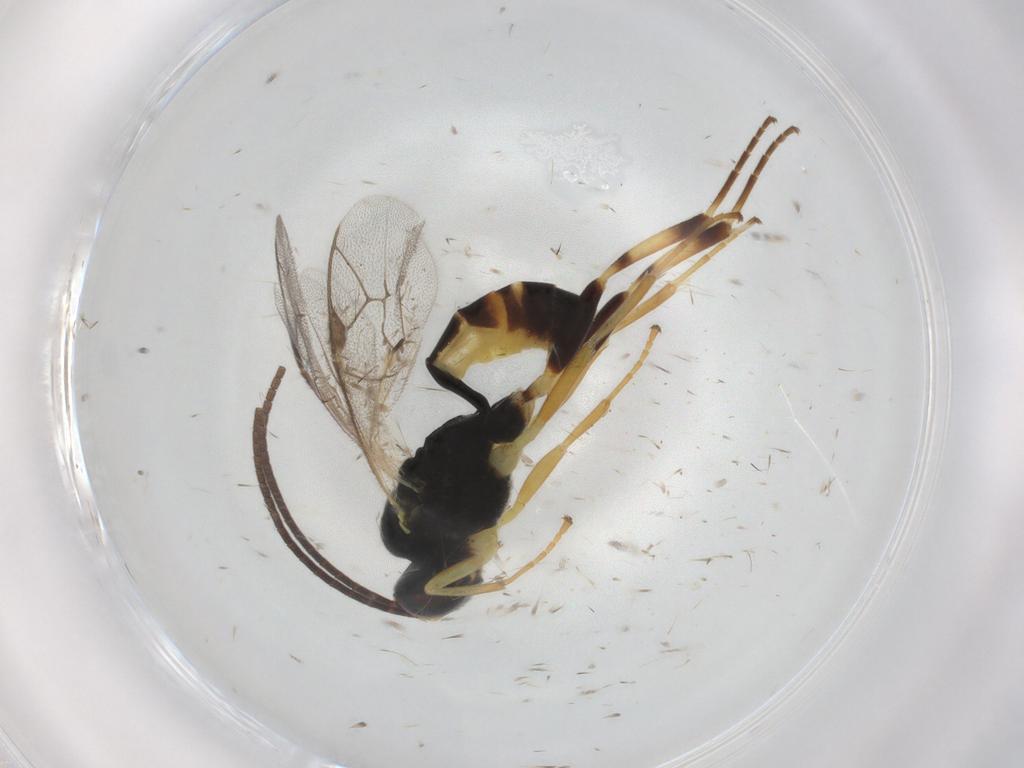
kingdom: Animalia
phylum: Arthropoda
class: Insecta
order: Hymenoptera
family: Ichneumonidae
